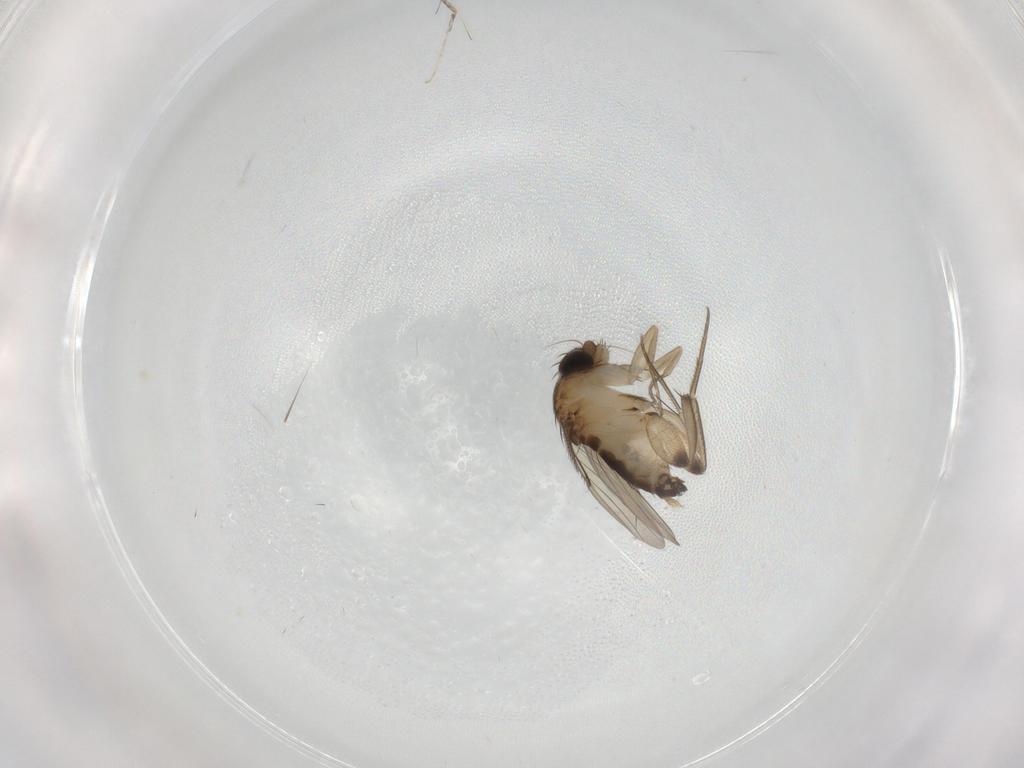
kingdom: Animalia
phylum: Arthropoda
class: Insecta
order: Diptera
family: Phoridae
